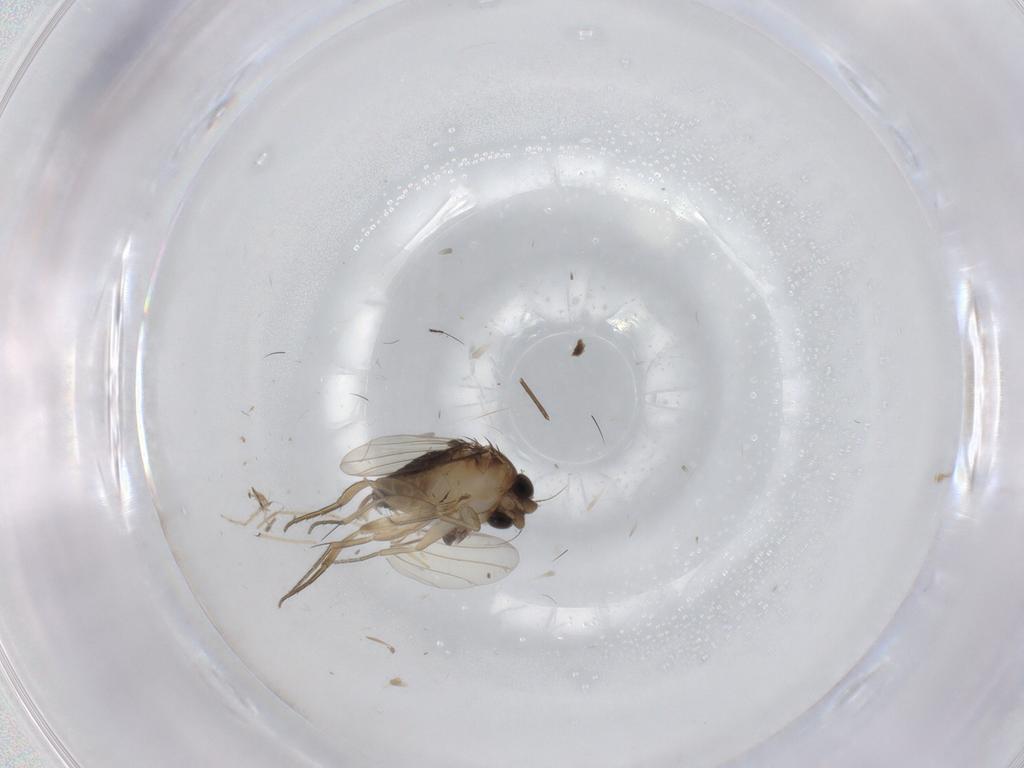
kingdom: Animalia
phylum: Arthropoda
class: Insecta
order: Diptera
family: Phoridae
